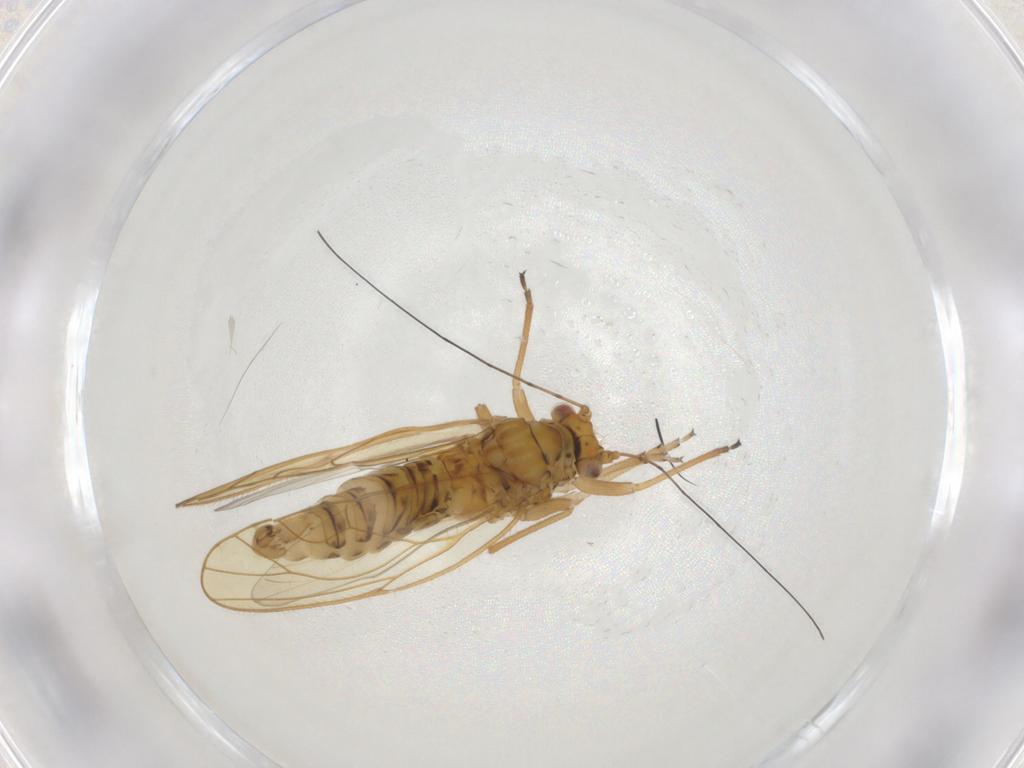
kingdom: Animalia
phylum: Arthropoda
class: Insecta
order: Hemiptera
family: Psyllidae
